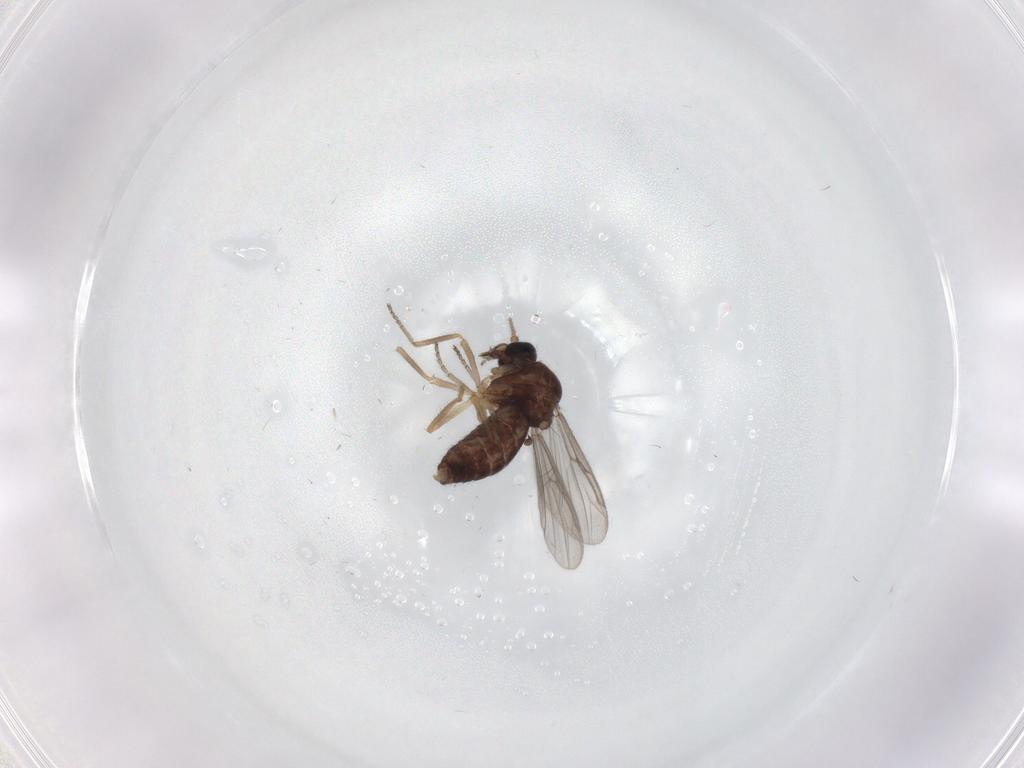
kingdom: Animalia
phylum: Arthropoda
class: Insecta
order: Diptera
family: Ceratopogonidae
